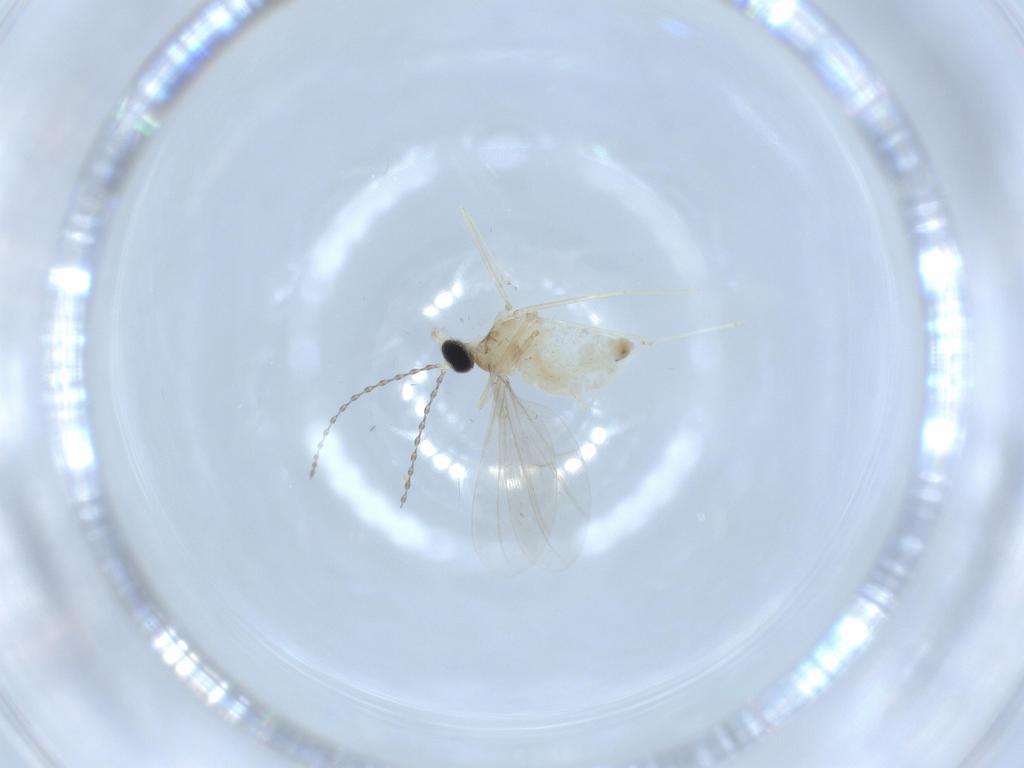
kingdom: Animalia
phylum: Arthropoda
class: Insecta
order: Diptera
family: Cecidomyiidae
